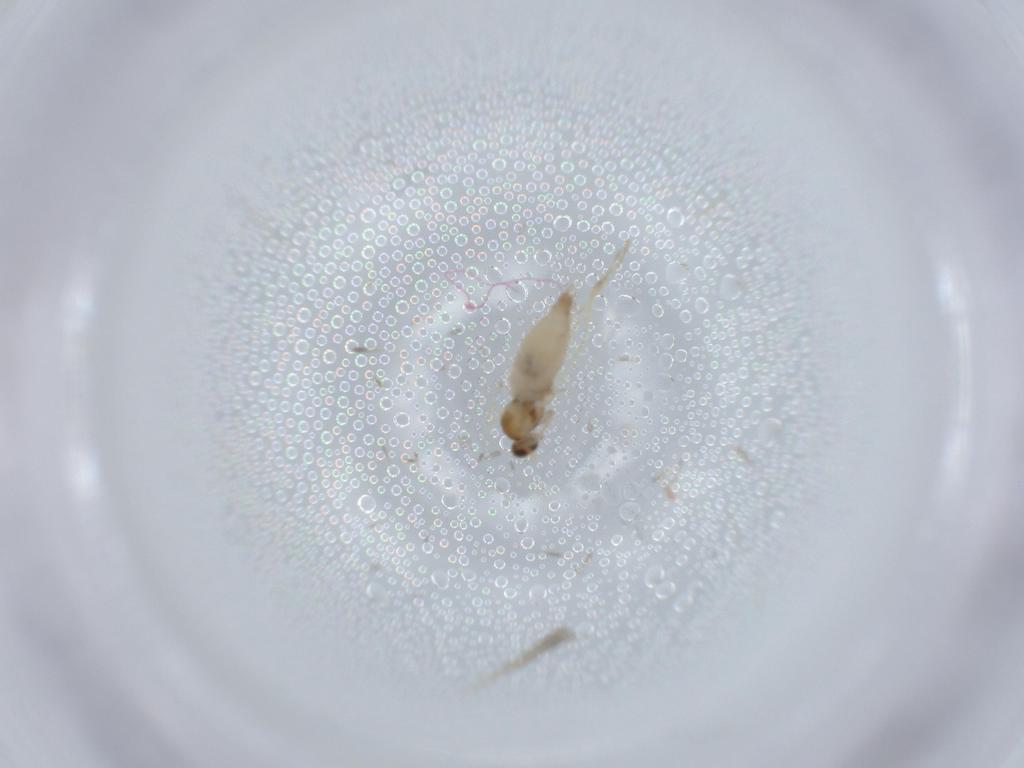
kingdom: Animalia
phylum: Arthropoda
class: Insecta
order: Diptera
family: Cecidomyiidae
